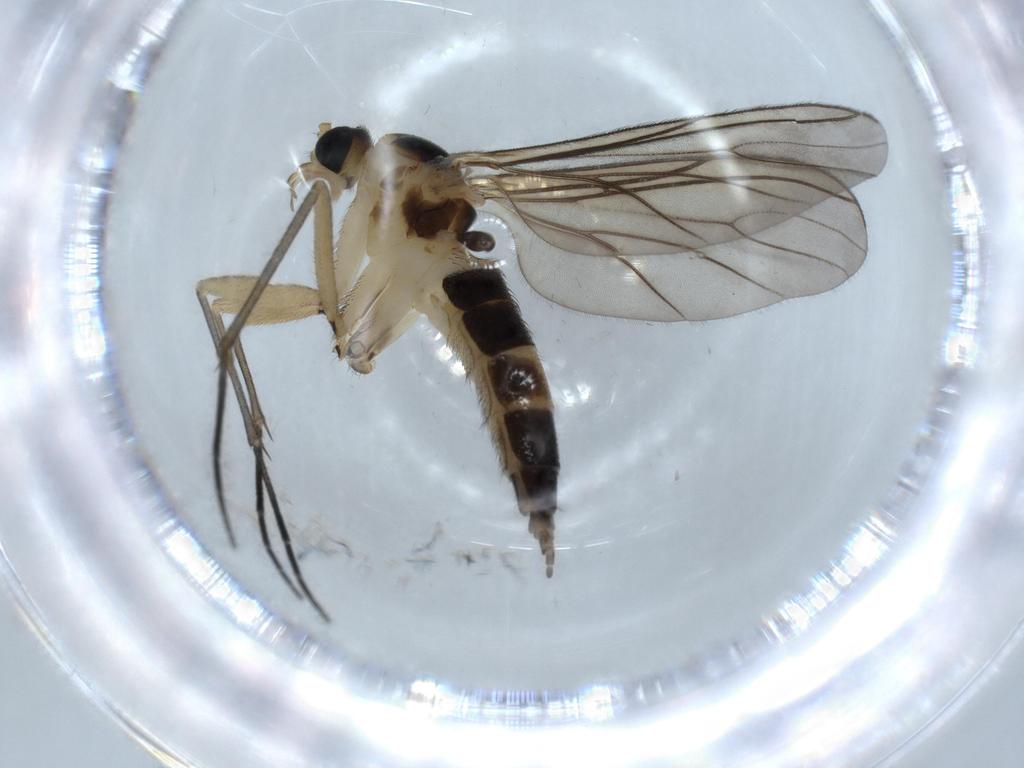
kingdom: Animalia
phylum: Arthropoda
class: Insecta
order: Diptera
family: Sciaridae
